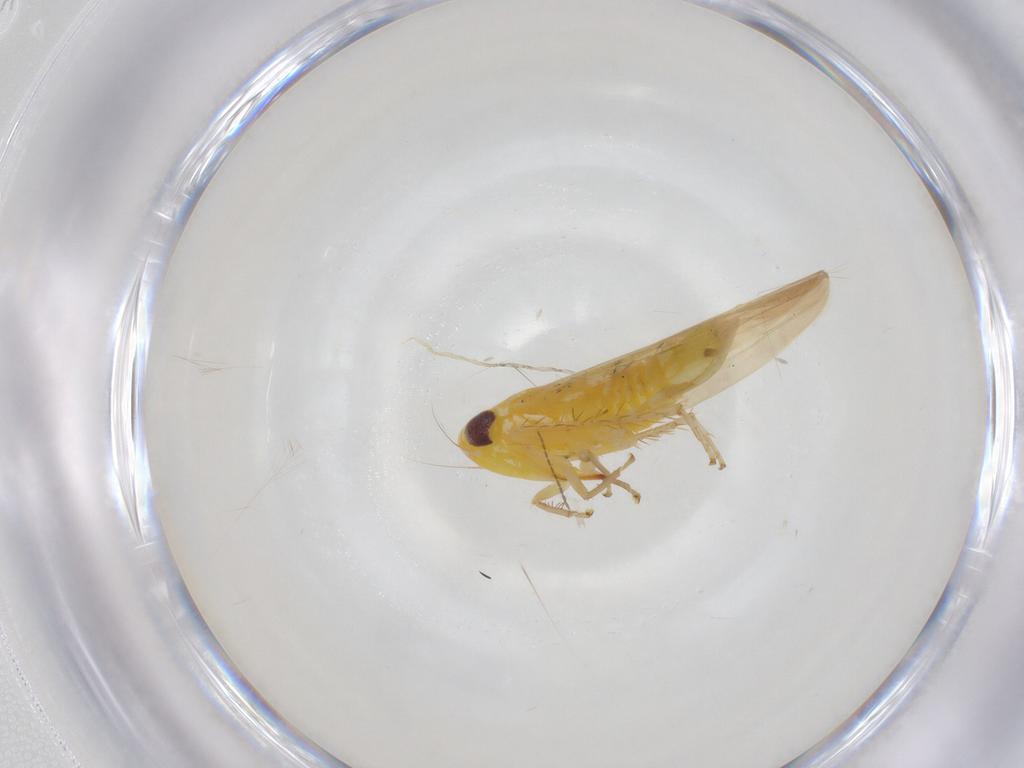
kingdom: Animalia
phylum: Arthropoda
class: Insecta
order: Hemiptera
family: Cicadellidae
